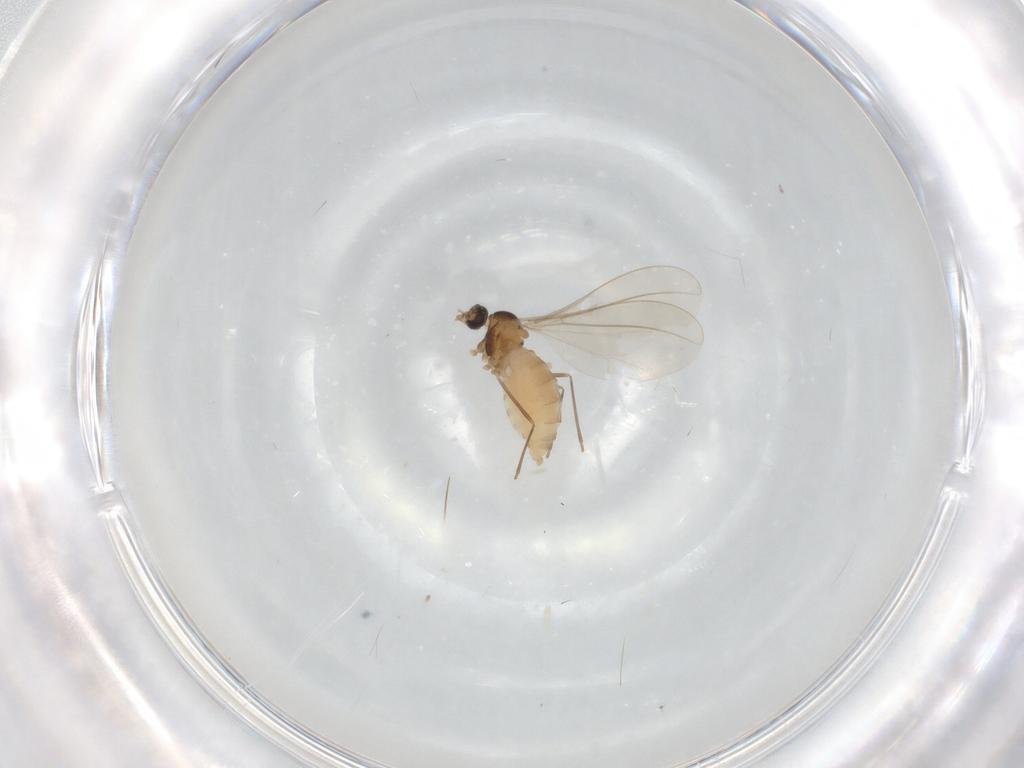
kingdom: Animalia
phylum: Arthropoda
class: Insecta
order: Diptera
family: Cecidomyiidae
